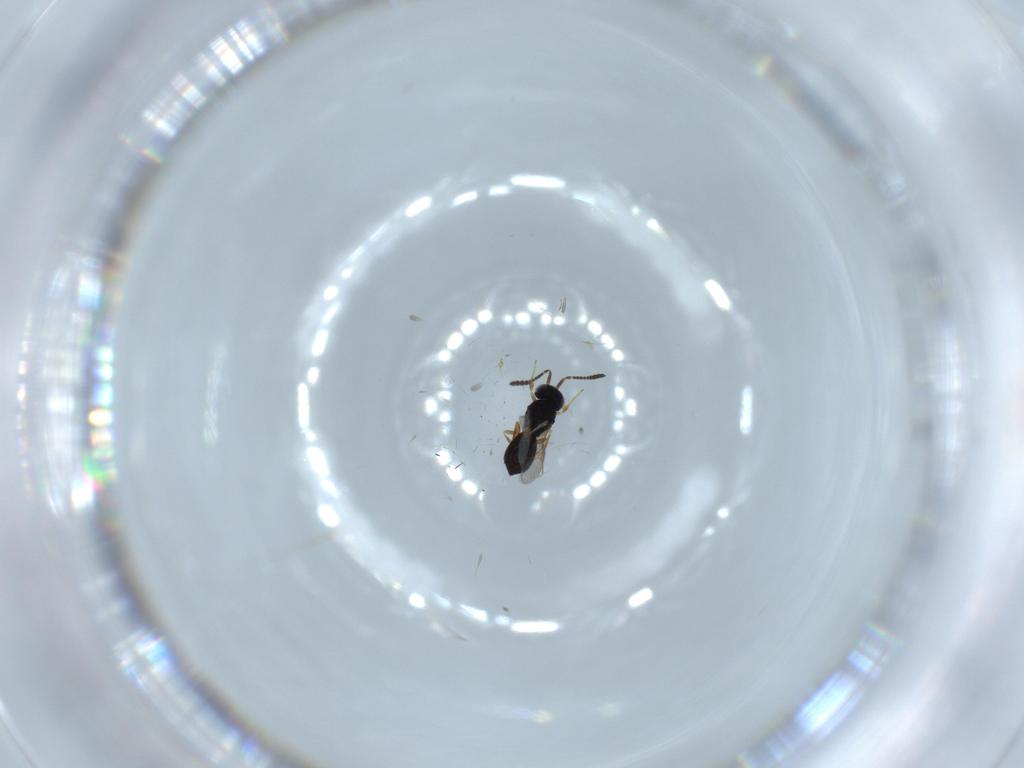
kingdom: Animalia
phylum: Arthropoda
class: Insecta
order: Hymenoptera
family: Scelionidae
